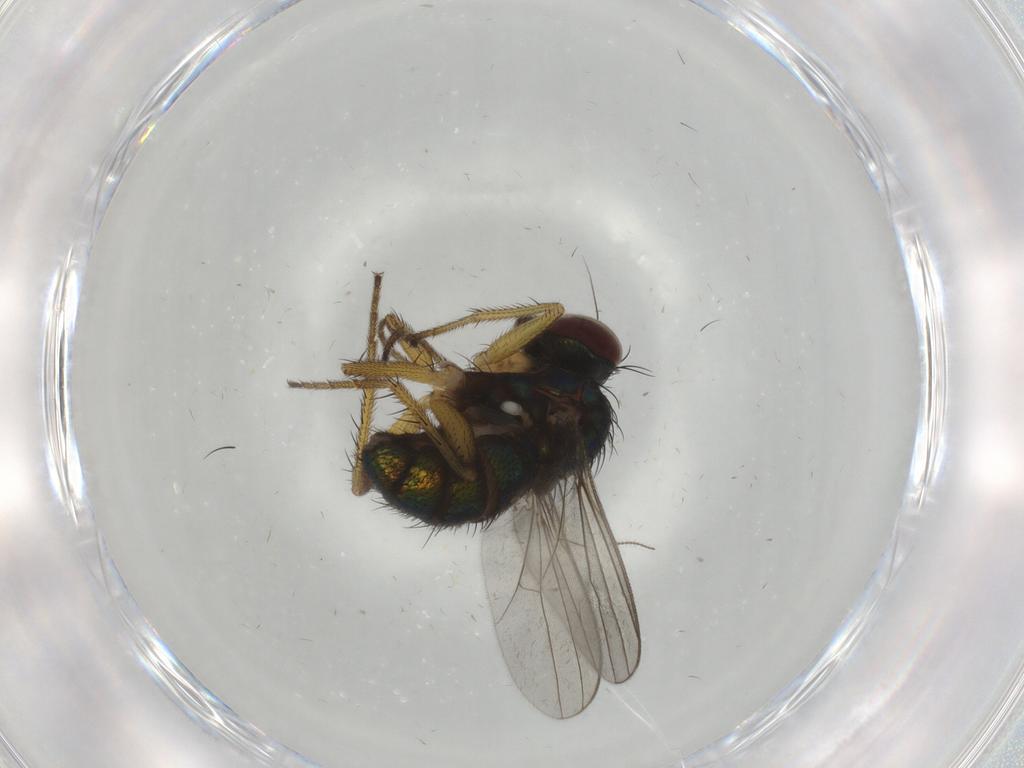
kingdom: Animalia
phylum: Arthropoda
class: Insecta
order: Diptera
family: Dolichopodidae
